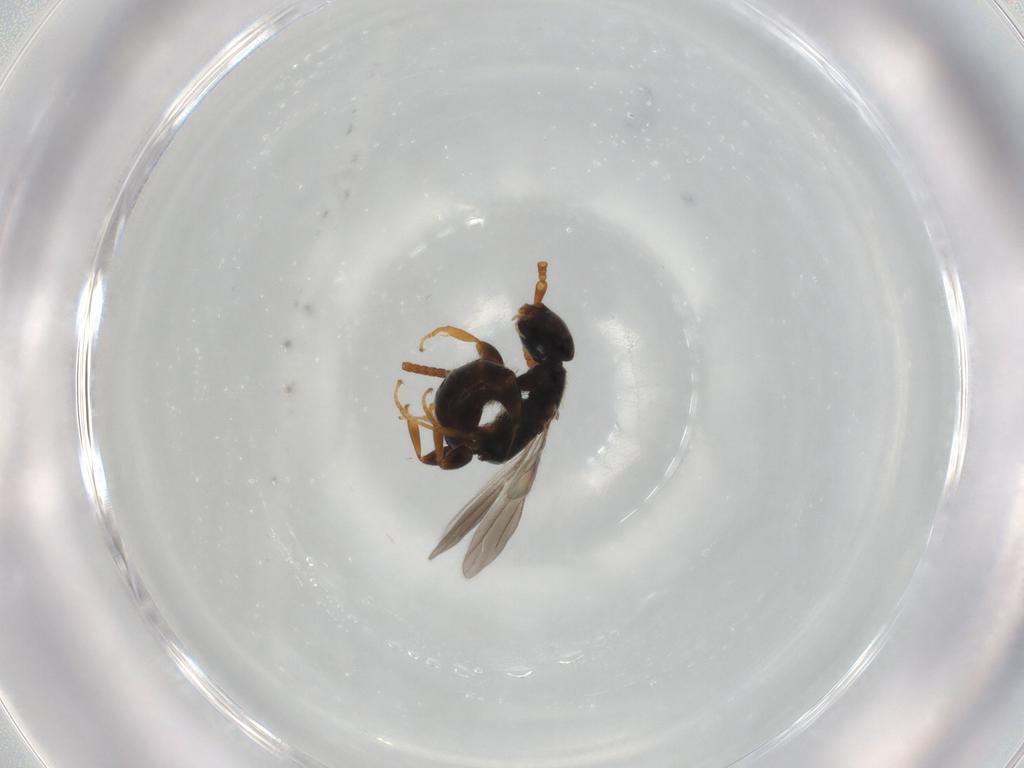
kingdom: Animalia
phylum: Arthropoda
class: Insecta
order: Hymenoptera
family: Bethylidae
